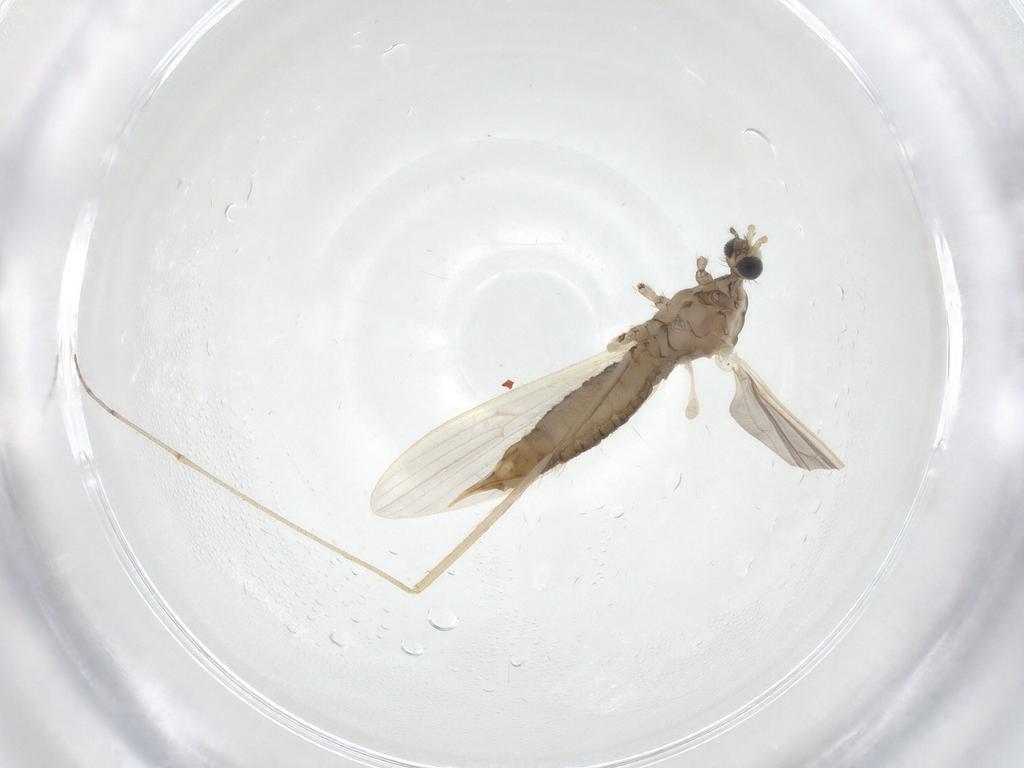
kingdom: Animalia
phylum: Arthropoda
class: Insecta
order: Diptera
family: Limoniidae
